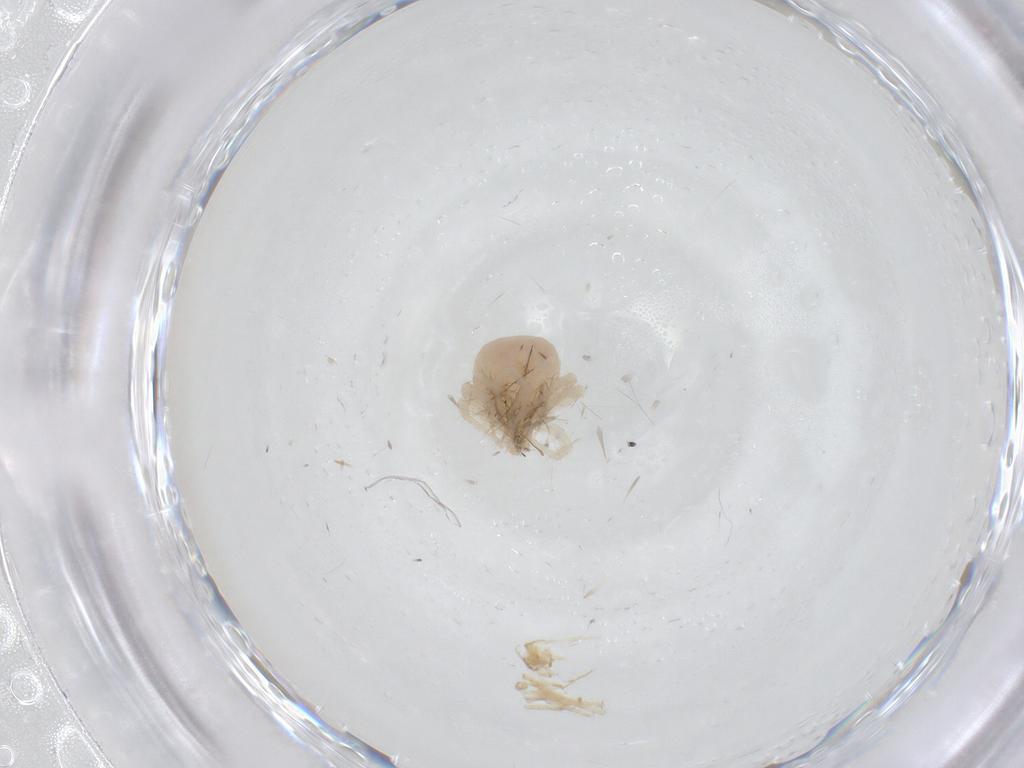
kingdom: Animalia
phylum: Arthropoda
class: Arachnida
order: Trombidiformes
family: Anystidae
